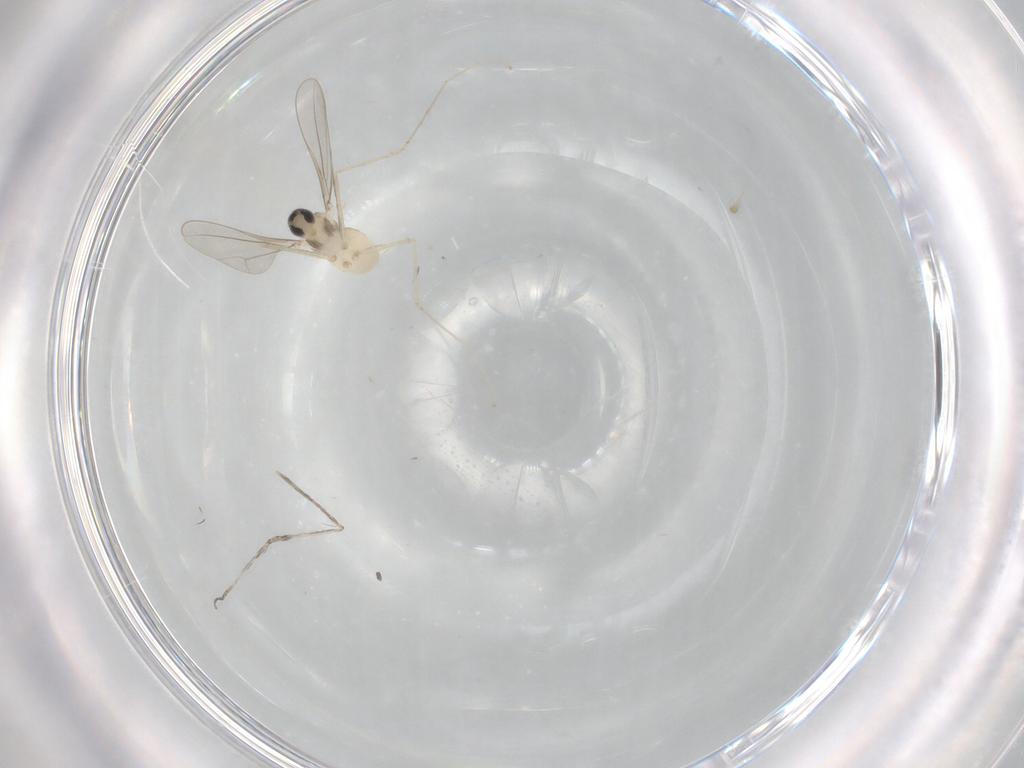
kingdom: Animalia
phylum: Arthropoda
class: Insecta
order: Diptera
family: Cecidomyiidae
